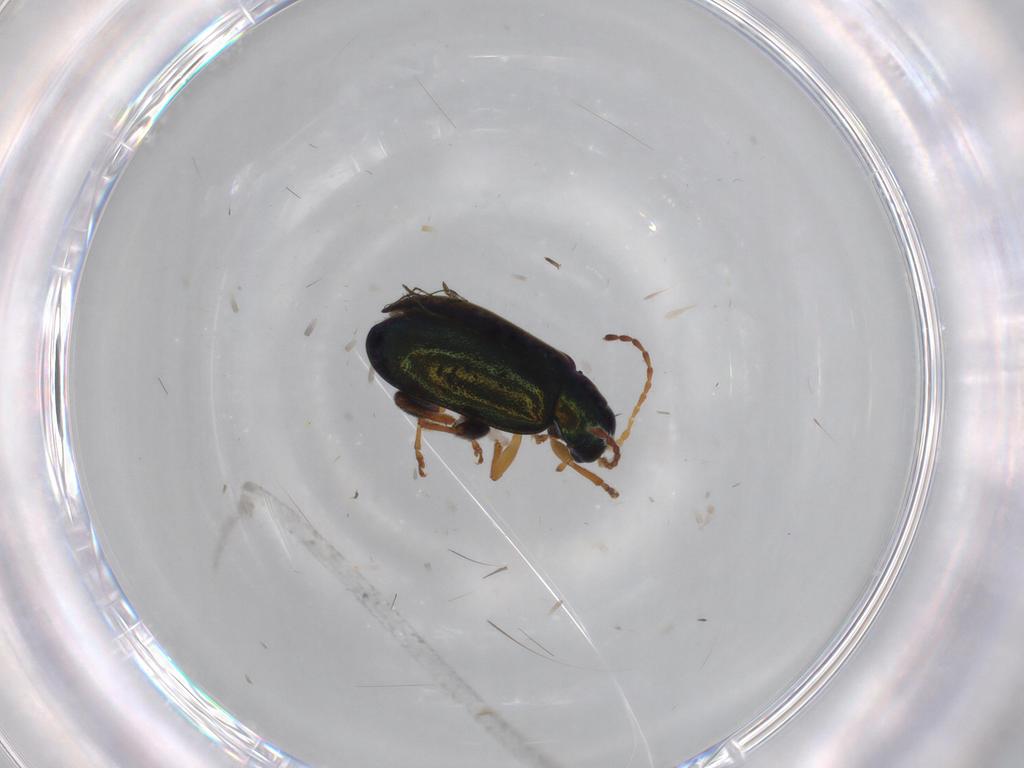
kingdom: Animalia
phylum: Arthropoda
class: Insecta
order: Coleoptera
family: Chrysomelidae
